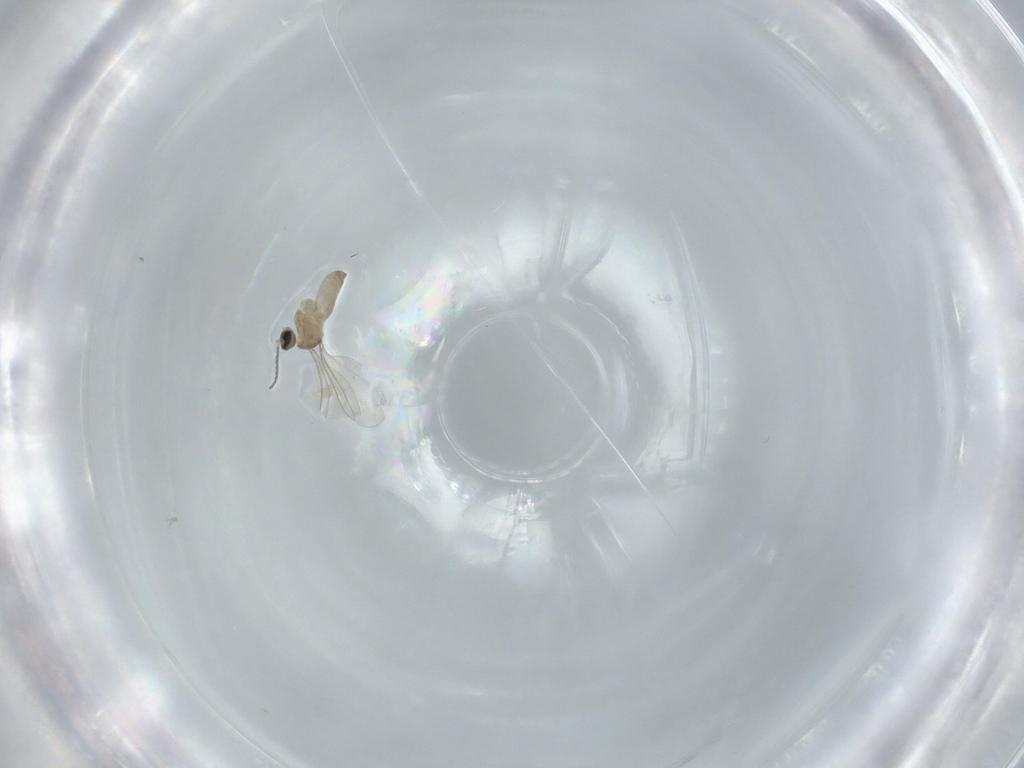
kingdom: Animalia
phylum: Arthropoda
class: Insecta
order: Diptera
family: Cecidomyiidae
